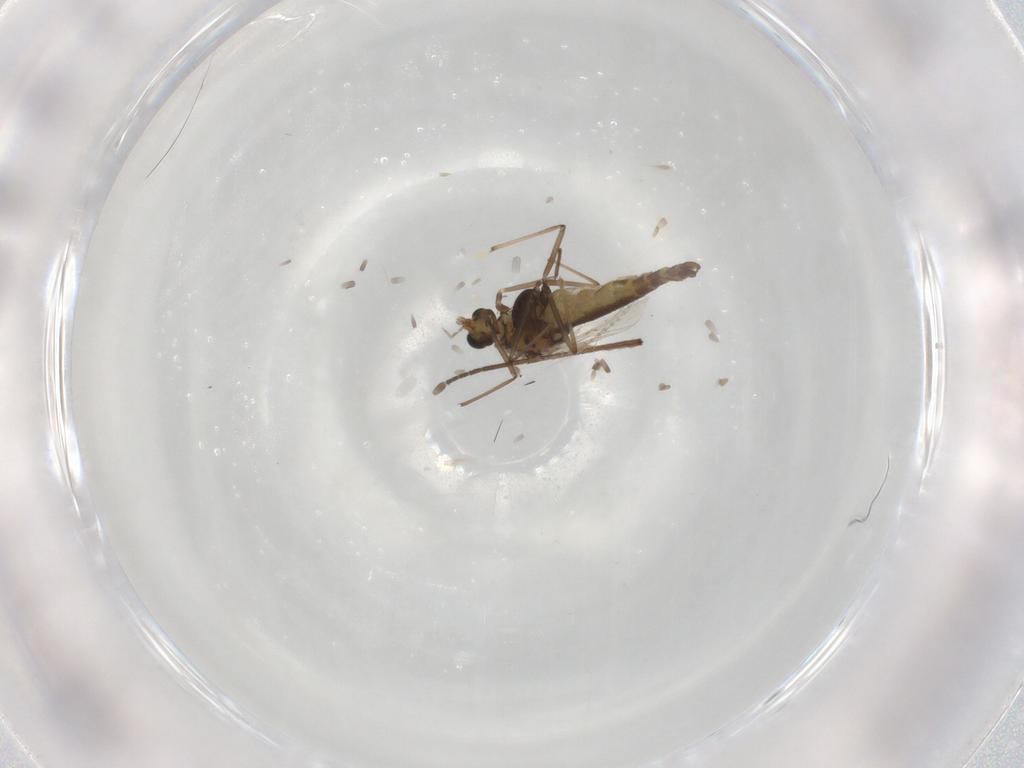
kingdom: Animalia
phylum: Arthropoda
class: Insecta
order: Diptera
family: Chironomidae
